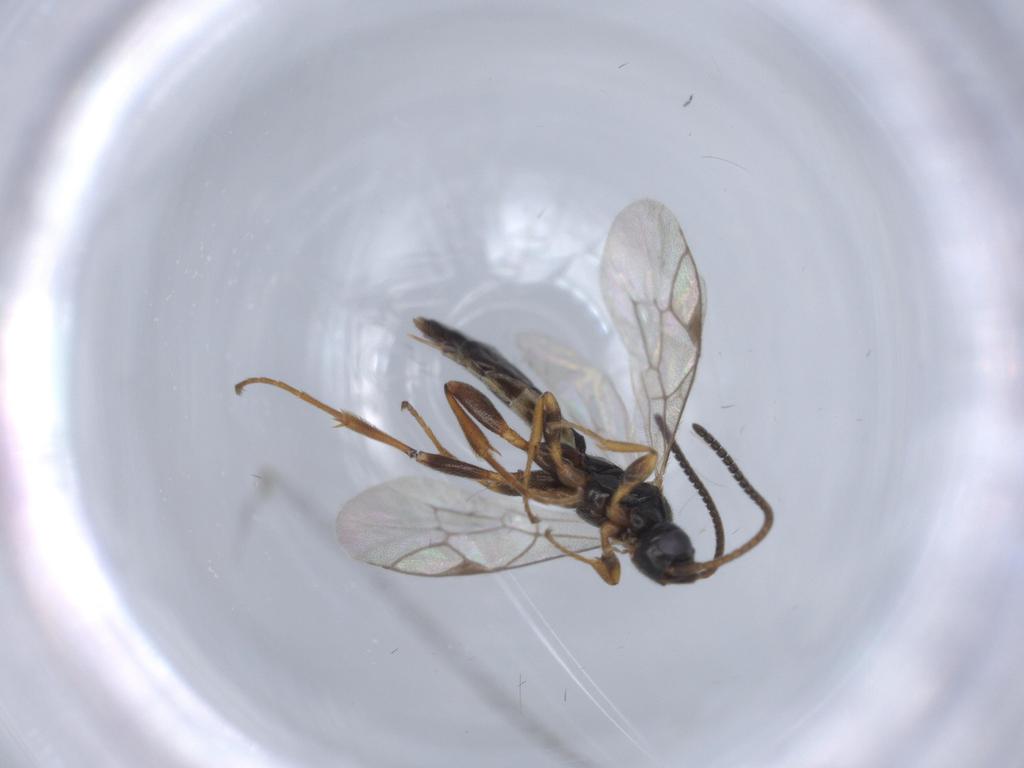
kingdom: Animalia
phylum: Arthropoda
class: Insecta
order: Hymenoptera
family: Ichneumonidae
